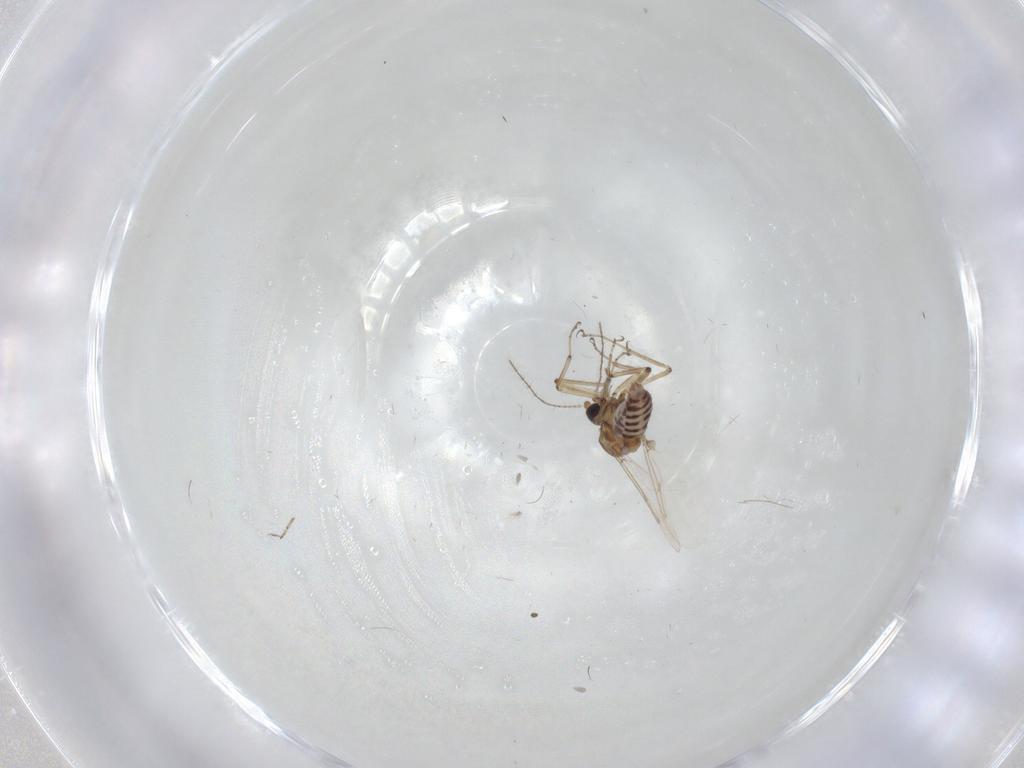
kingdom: Animalia
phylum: Arthropoda
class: Insecta
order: Diptera
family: Ceratopogonidae
